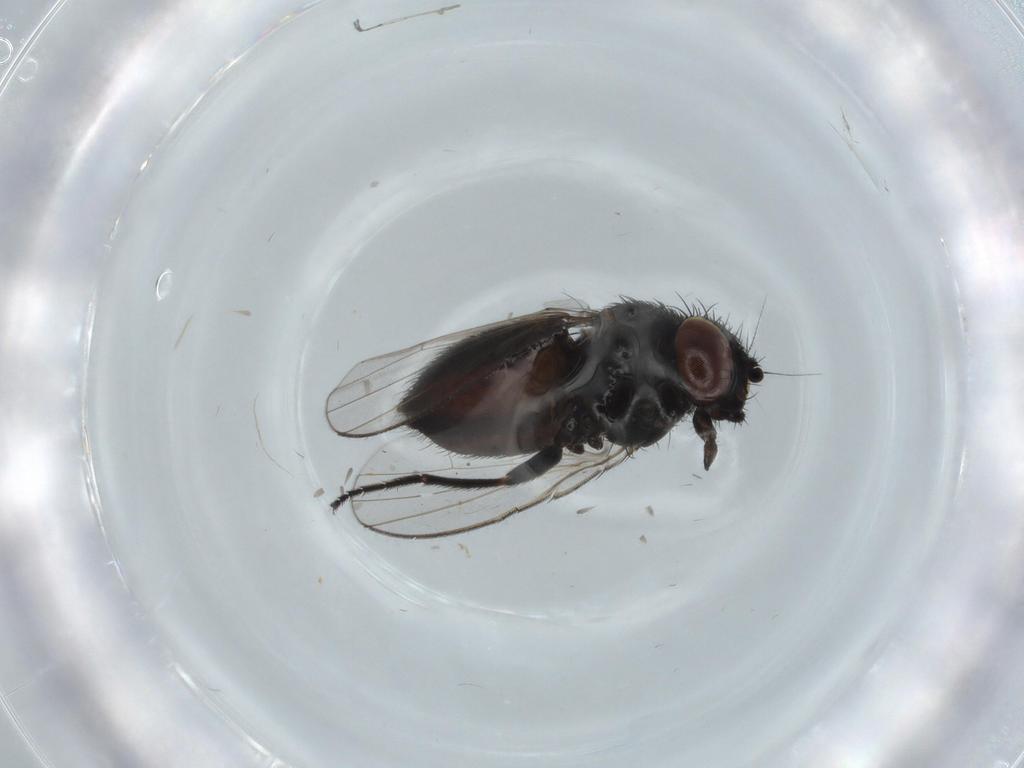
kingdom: Animalia
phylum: Arthropoda
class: Insecta
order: Diptera
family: Milichiidae
